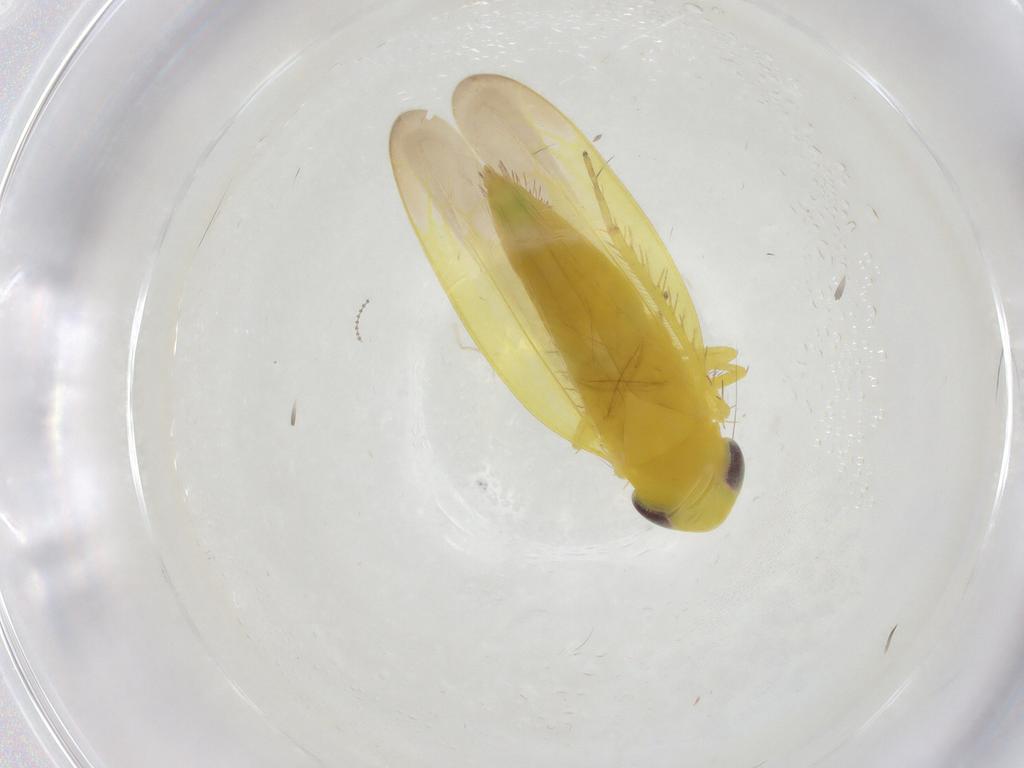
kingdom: Animalia
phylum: Arthropoda
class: Insecta
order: Hemiptera
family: Cicadellidae
